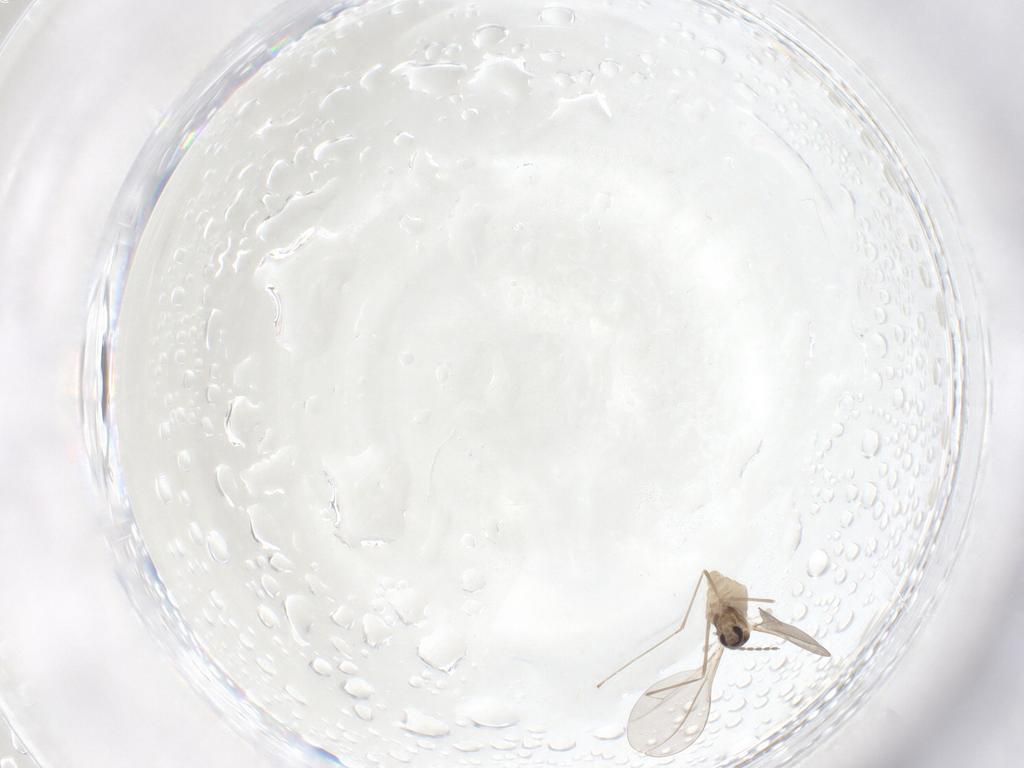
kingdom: Animalia
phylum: Arthropoda
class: Insecta
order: Diptera
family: Cecidomyiidae
